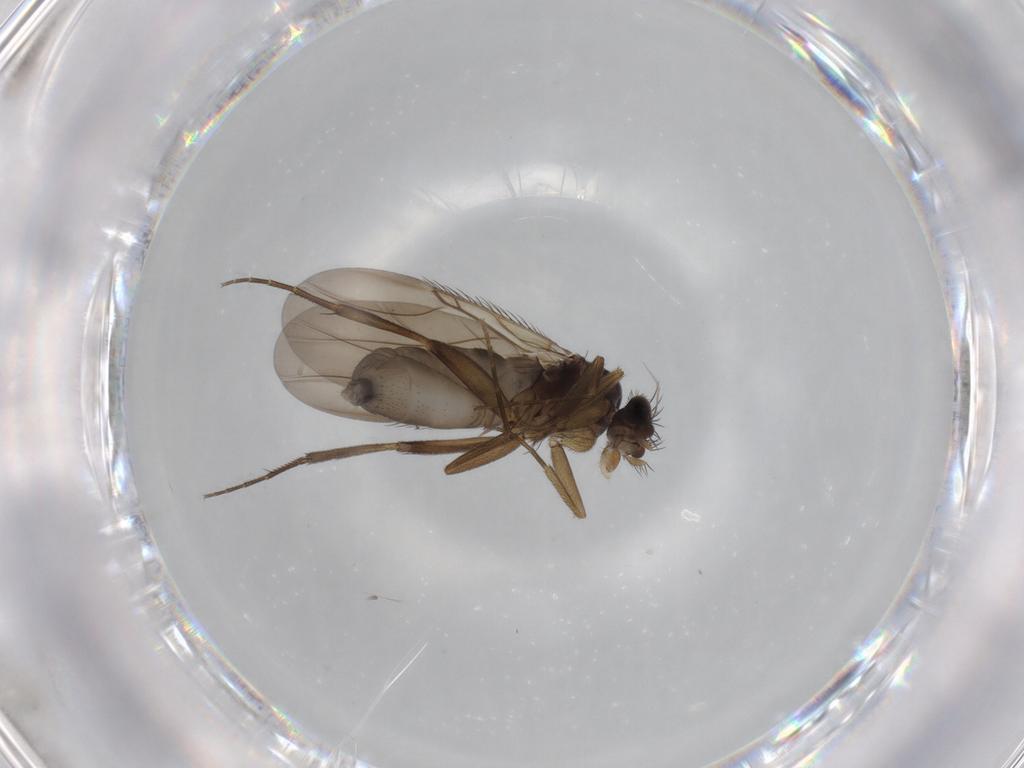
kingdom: Animalia
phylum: Arthropoda
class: Insecta
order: Diptera
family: Phoridae
